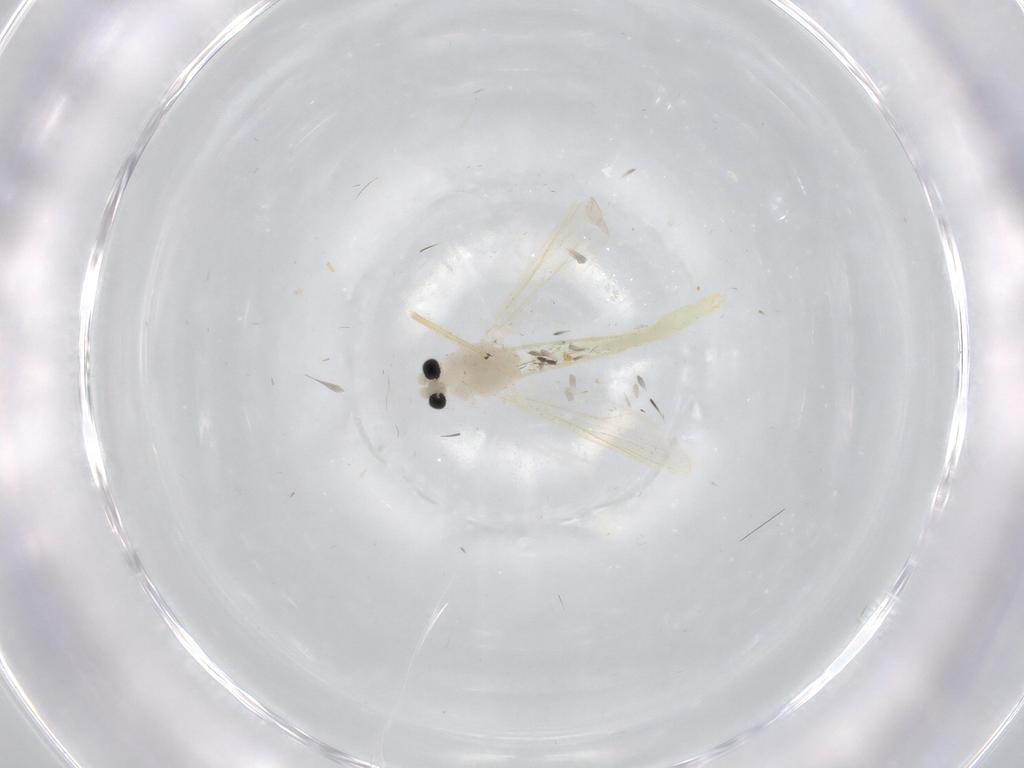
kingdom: Animalia
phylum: Arthropoda
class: Insecta
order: Diptera
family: Chironomidae
